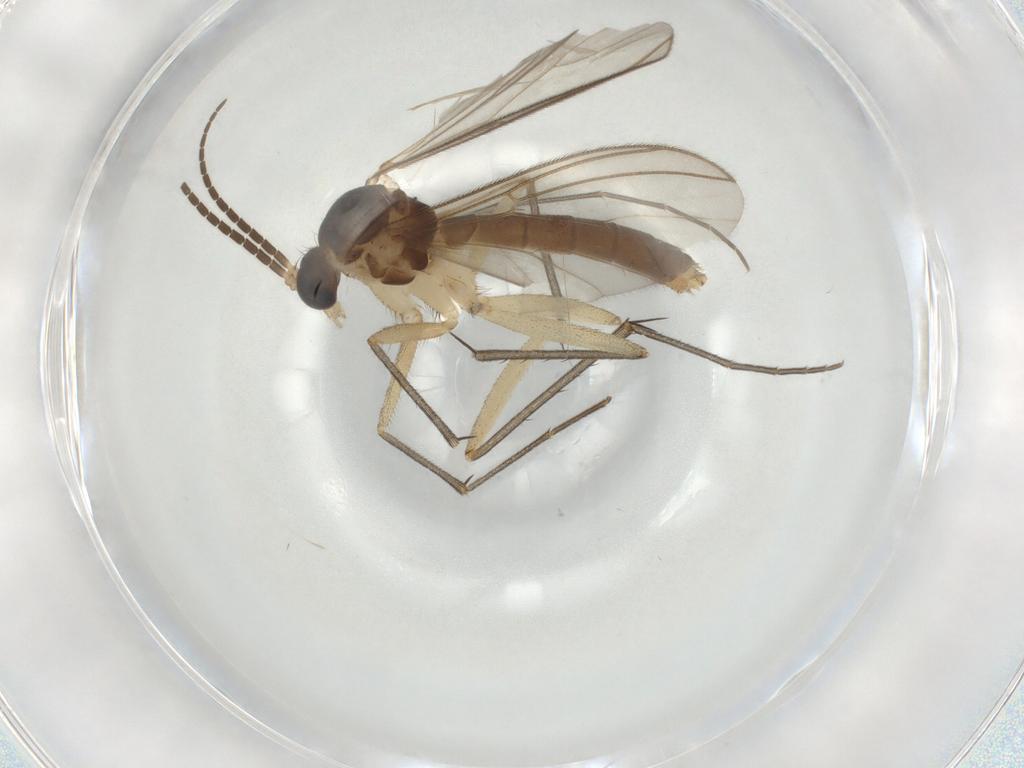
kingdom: Animalia
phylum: Arthropoda
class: Insecta
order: Diptera
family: Mycetophilidae
